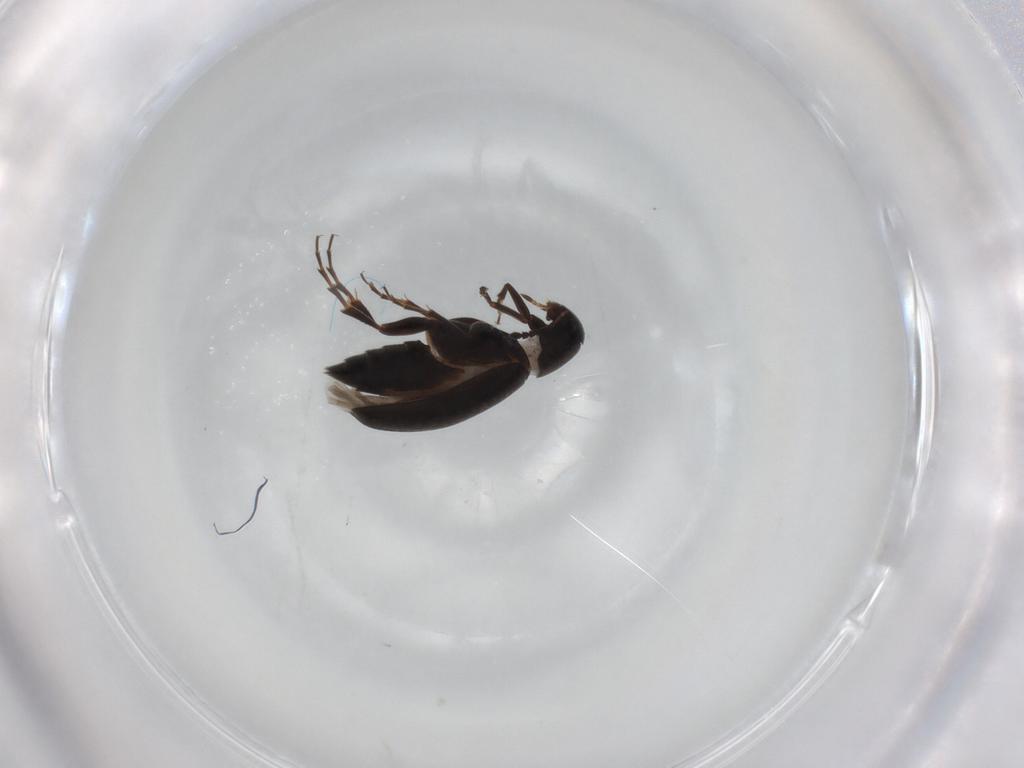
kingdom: Animalia
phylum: Arthropoda
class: Insecta
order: Coleoptera
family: Scraptiidae
